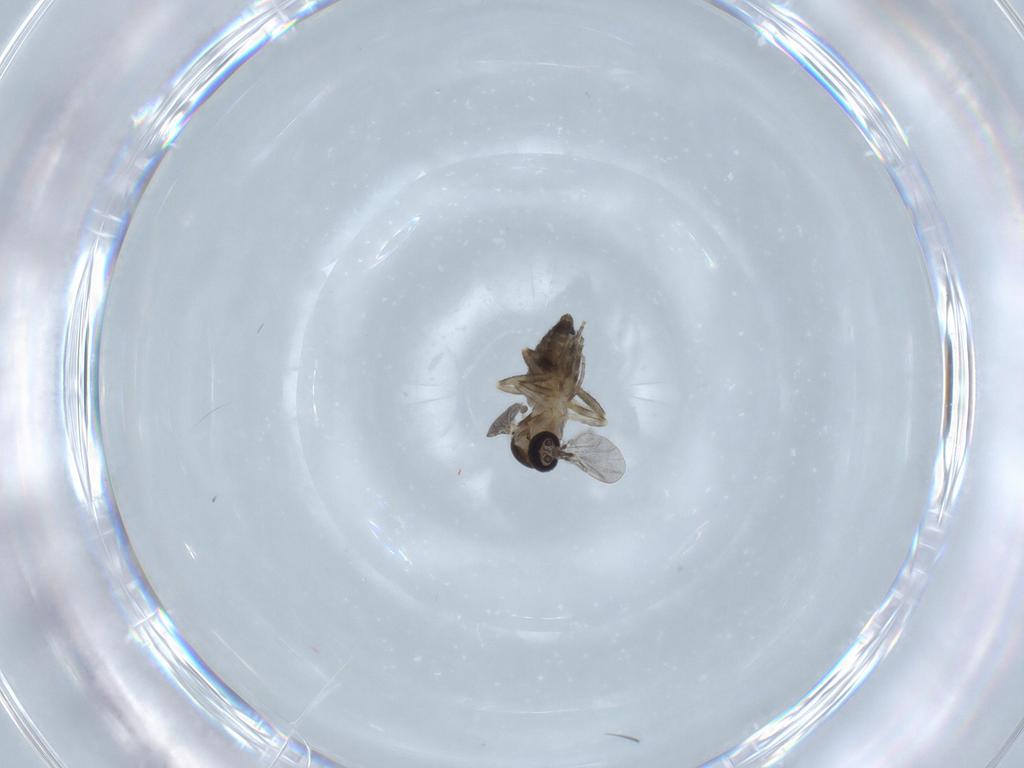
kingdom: Animalia
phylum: Arthropoda
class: Insecta
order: Diptera
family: Ceratopogonidae
